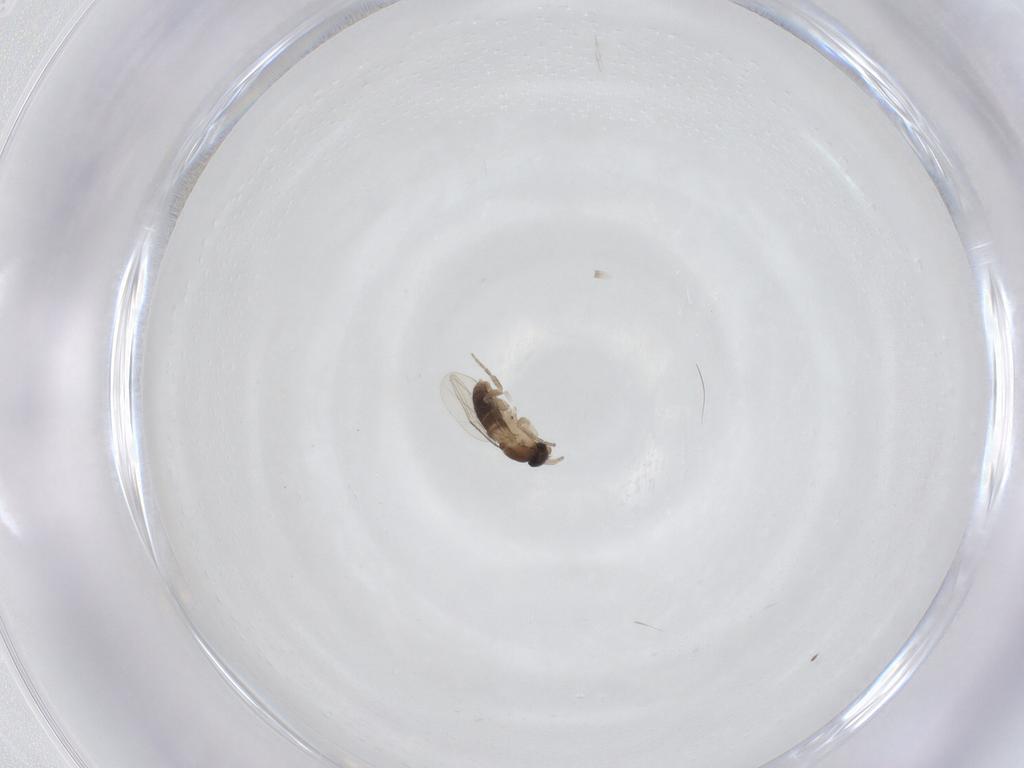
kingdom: Animalia
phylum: Arthropoda
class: Insecta
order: Diptera
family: Phoridae
